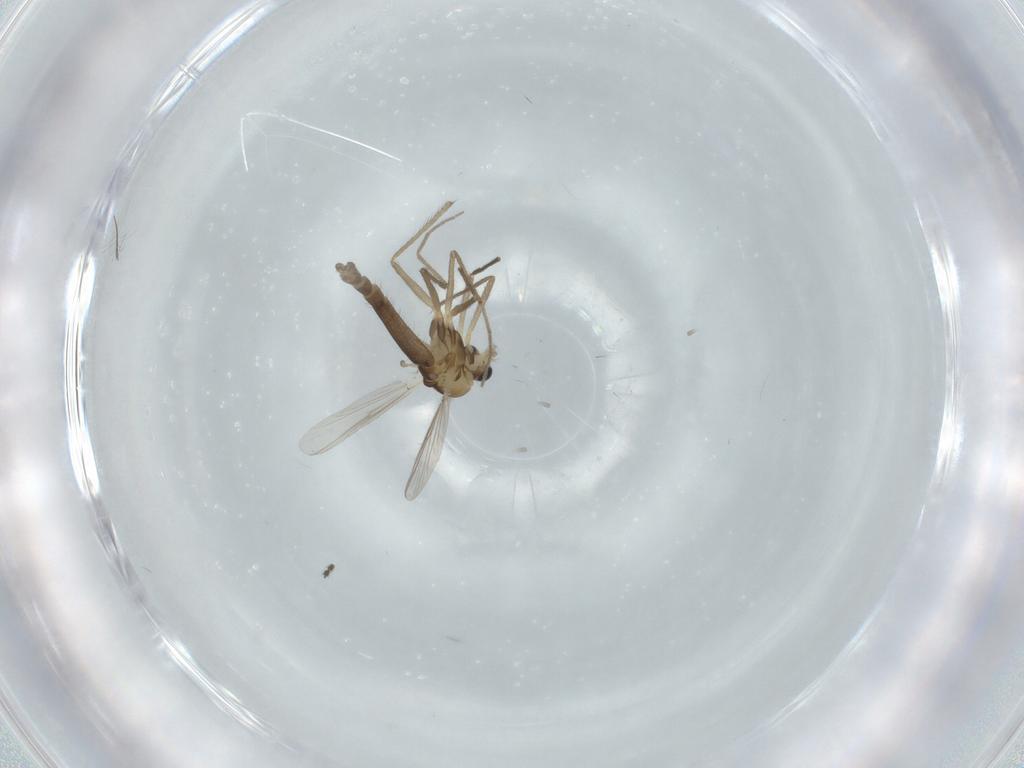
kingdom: Animalia
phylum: Arthropoda
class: Insecta
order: Diptera
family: Chironomidae
